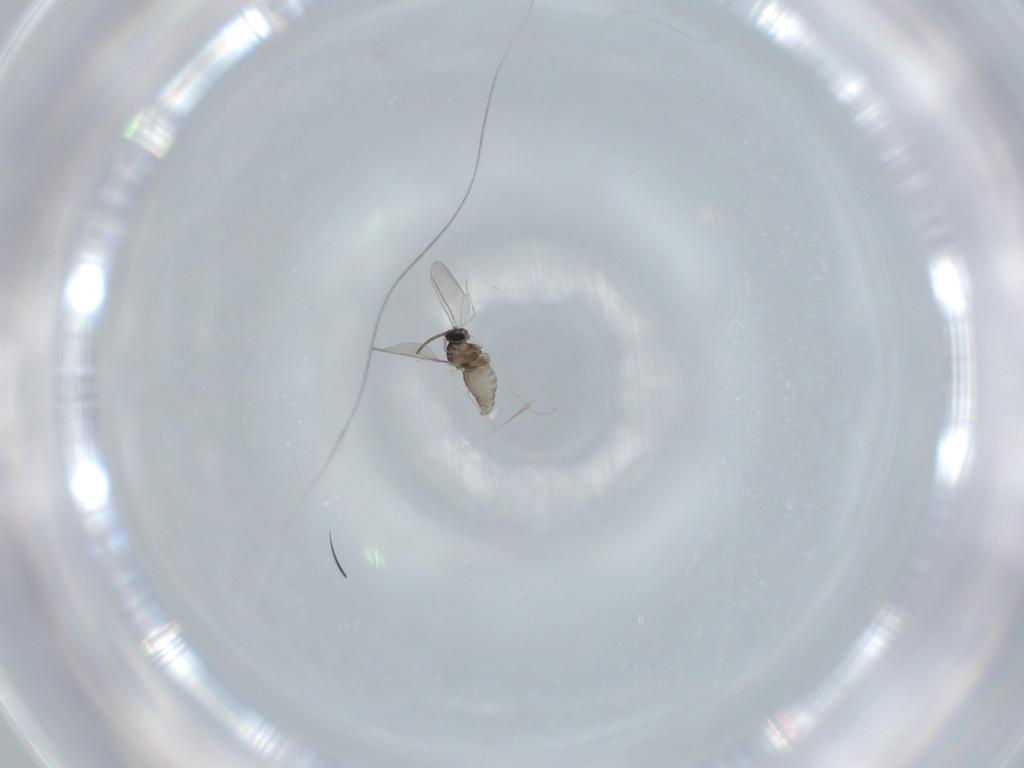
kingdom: Animalia
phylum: Arthropoda
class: Insecta
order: Diptera
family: Cecidomyiidae
